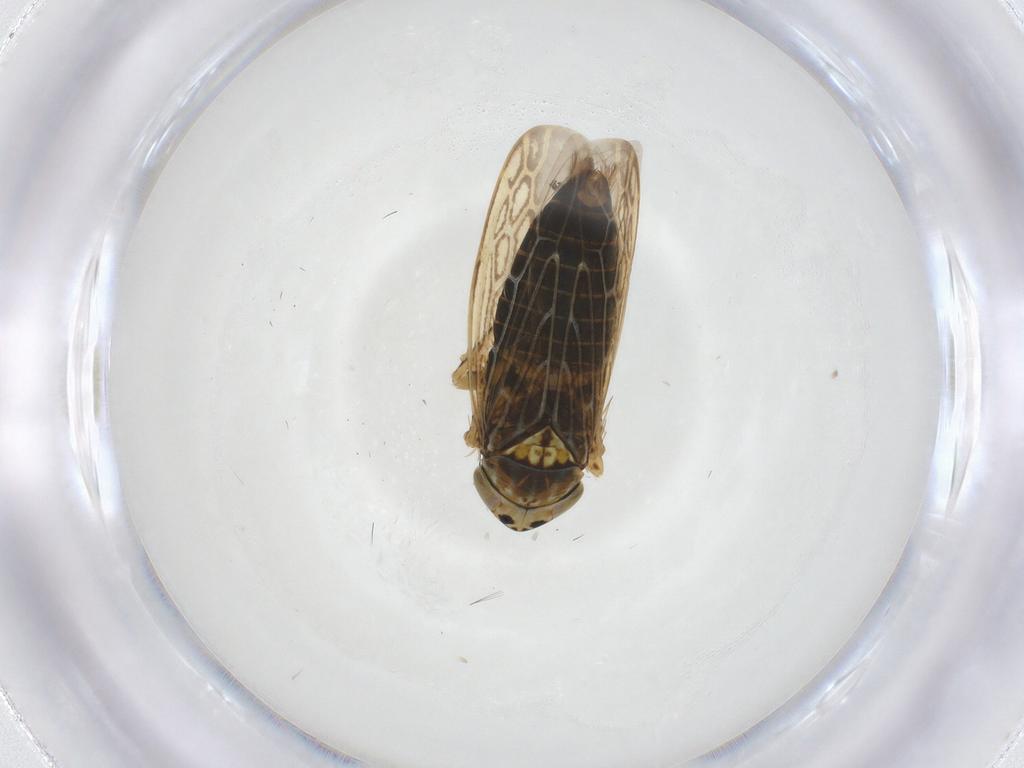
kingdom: Animalia
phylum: Arthropoda
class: Insecta
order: Hemiptera
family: Cicadellidae
